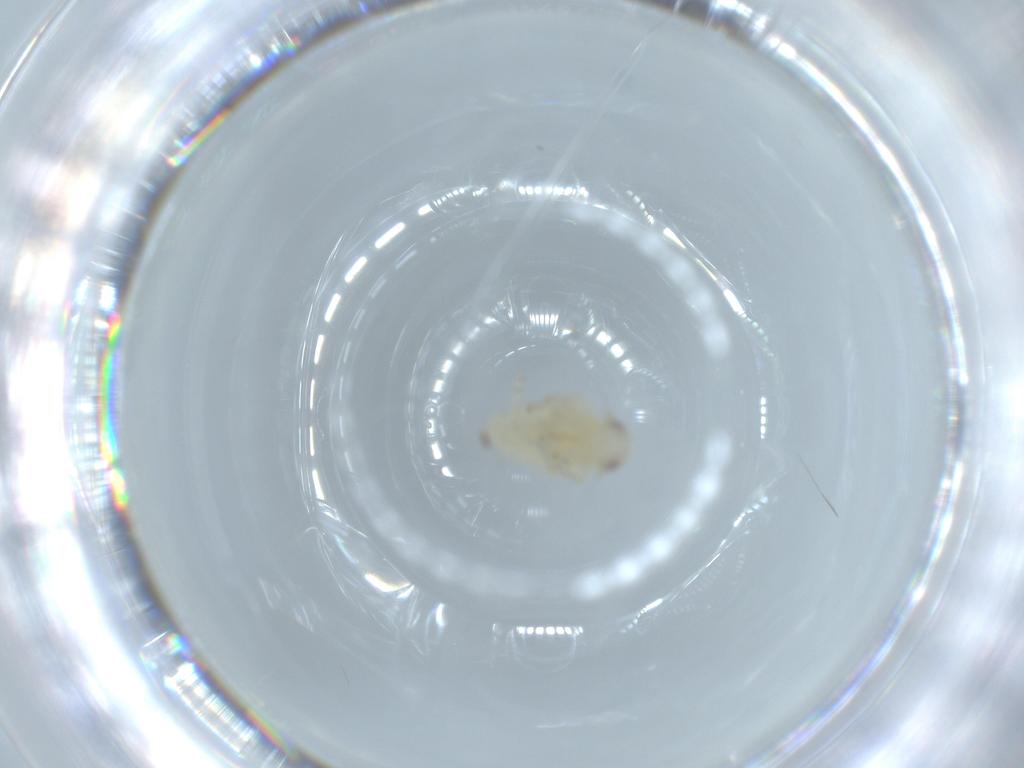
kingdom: Animalia
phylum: Arthropoda
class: Insecta
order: Hemiptera
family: Nogodinidae
